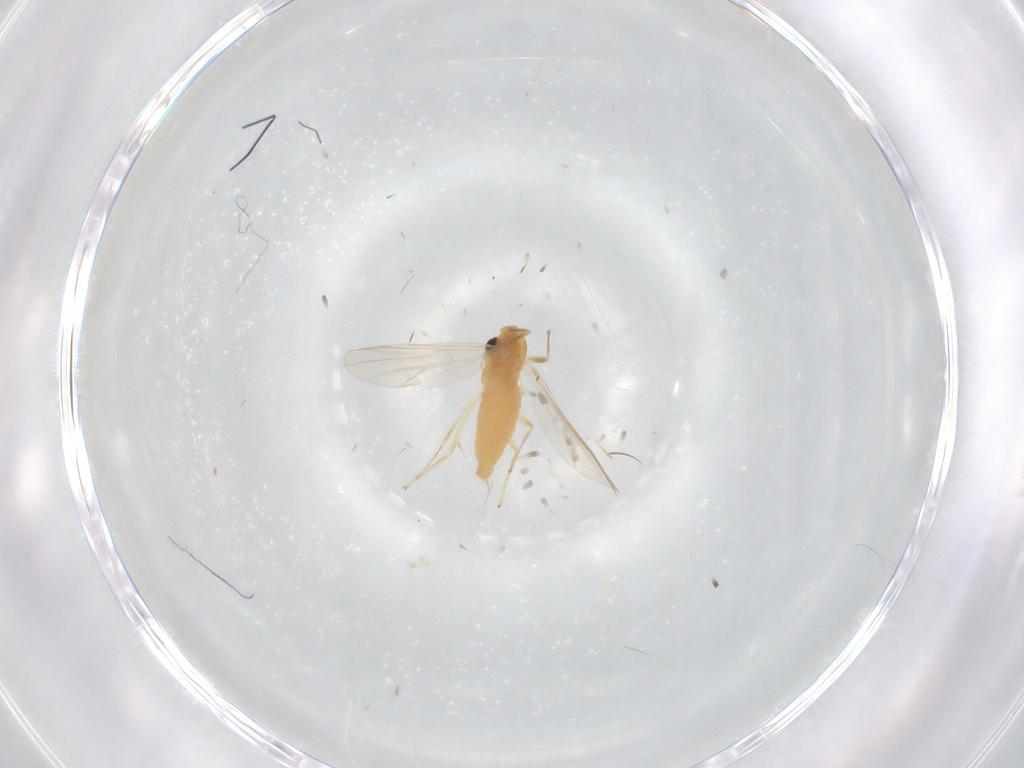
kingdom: Animalia
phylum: Arthropoda
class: Insecta
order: Diptera
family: Chironomidae
